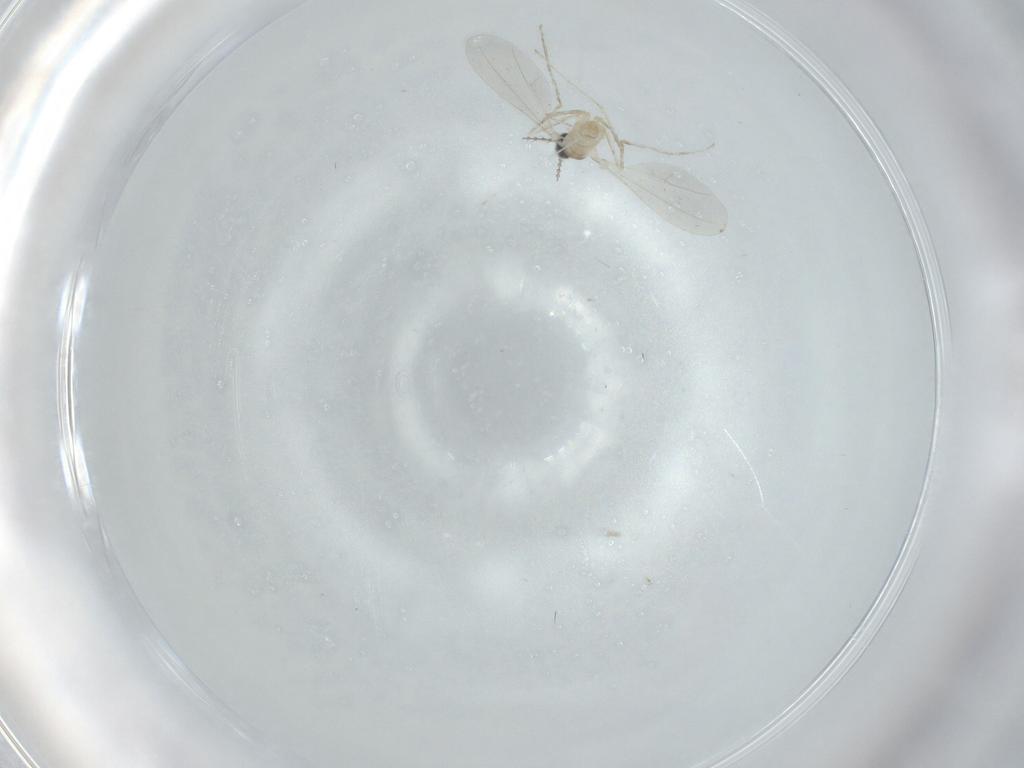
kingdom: Animalia
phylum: Arthropoda
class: Insecta
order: Diptera
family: Cecidomyiidae
